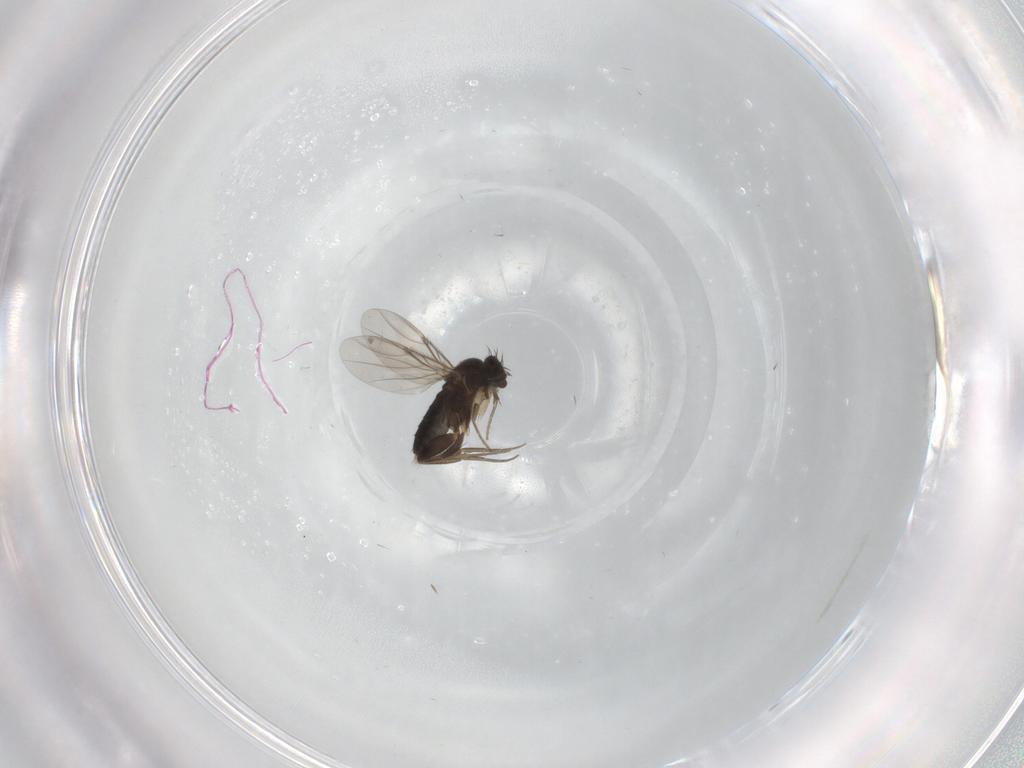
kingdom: Animalia
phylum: Arthropoda
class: Insecta
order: Diptera
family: Phoridae
